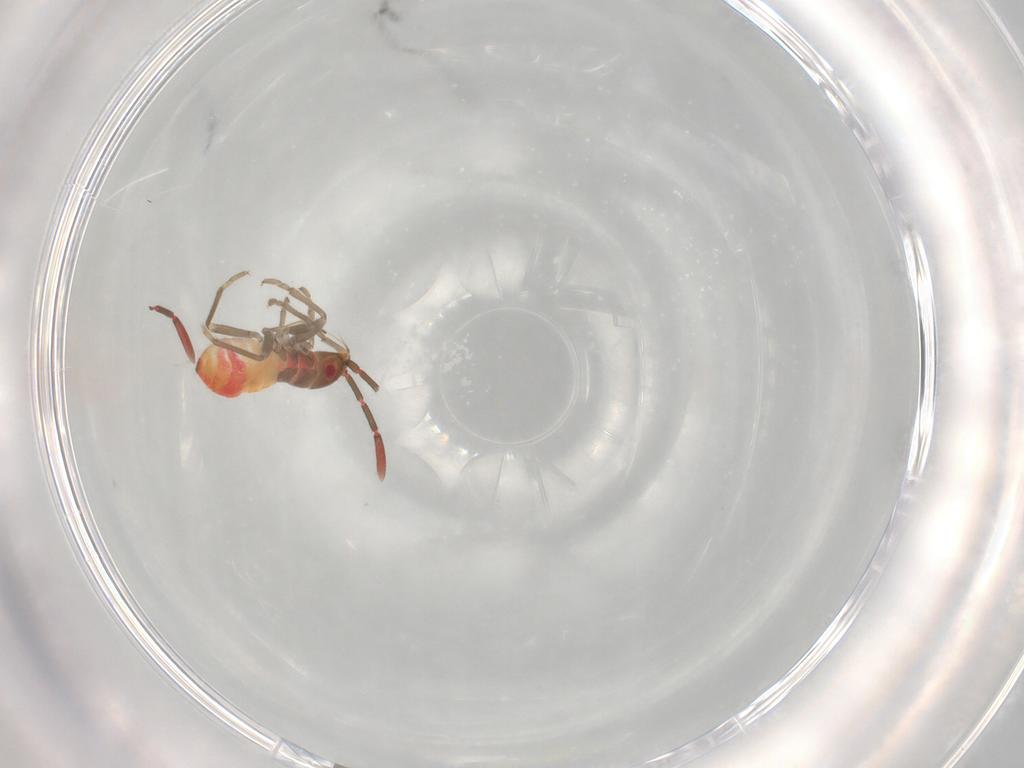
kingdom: Animalia
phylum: Arthropoda
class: Insecta
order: Hemiptera
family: Rhyparochromidae
